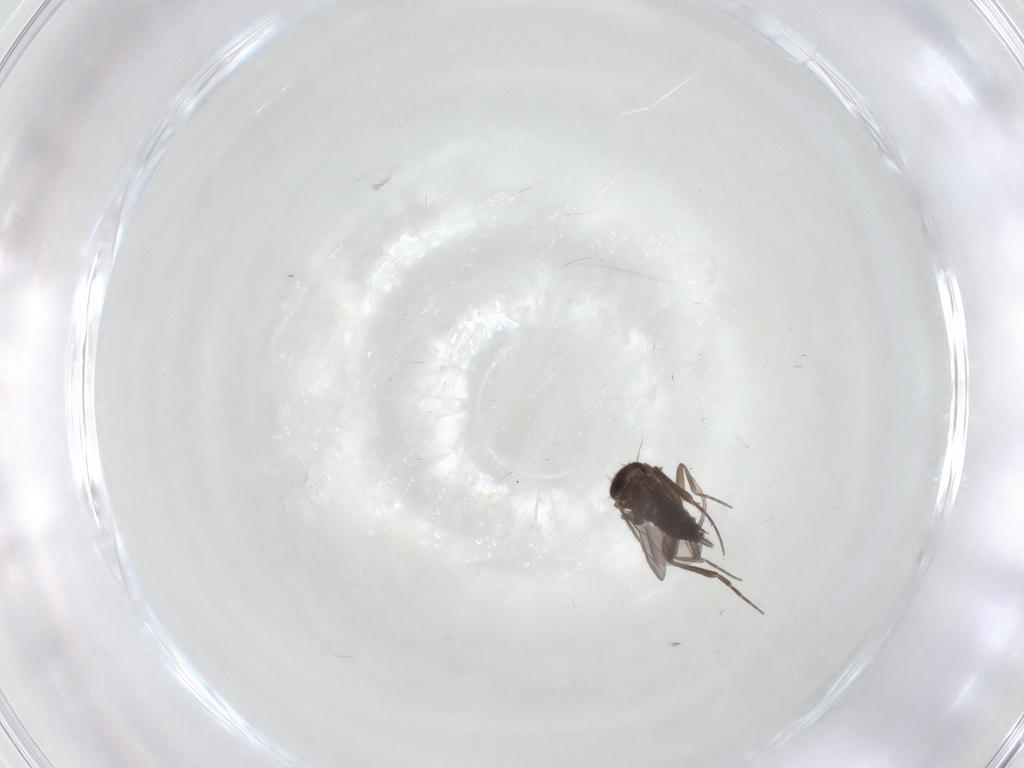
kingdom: Animalia
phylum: Arthropoda
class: Insecta
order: Diptera
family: Cecidomyiidae
